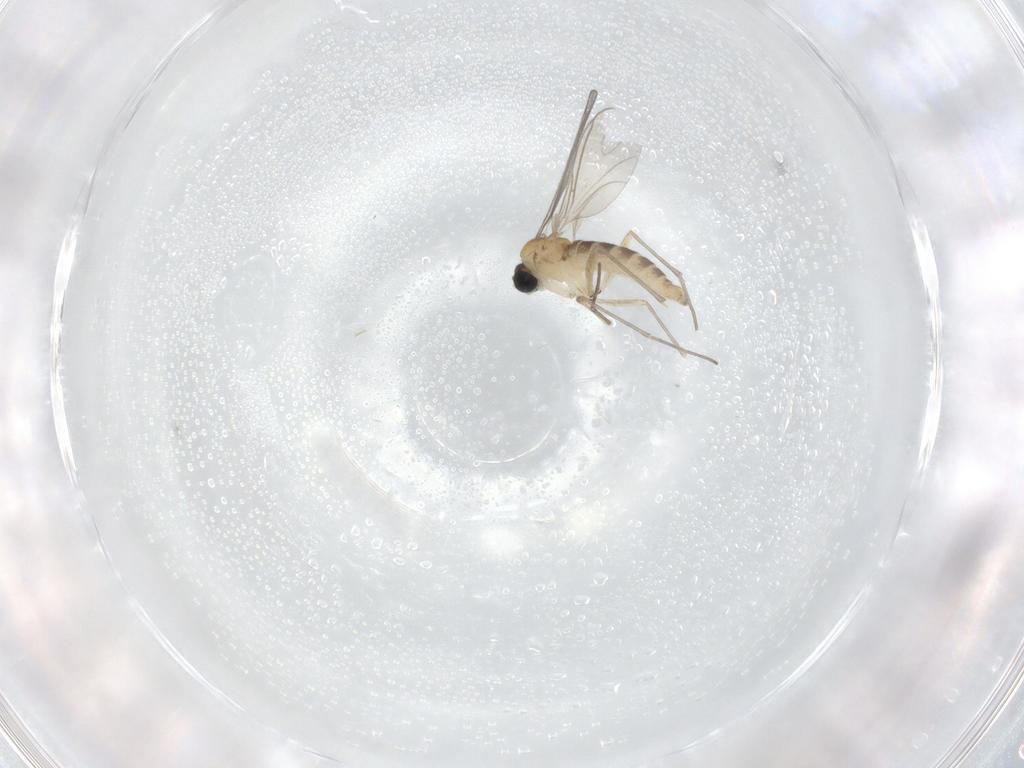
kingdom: Animalia
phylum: Arthropoda
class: Insecta
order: Diptera
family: Sciaridae
